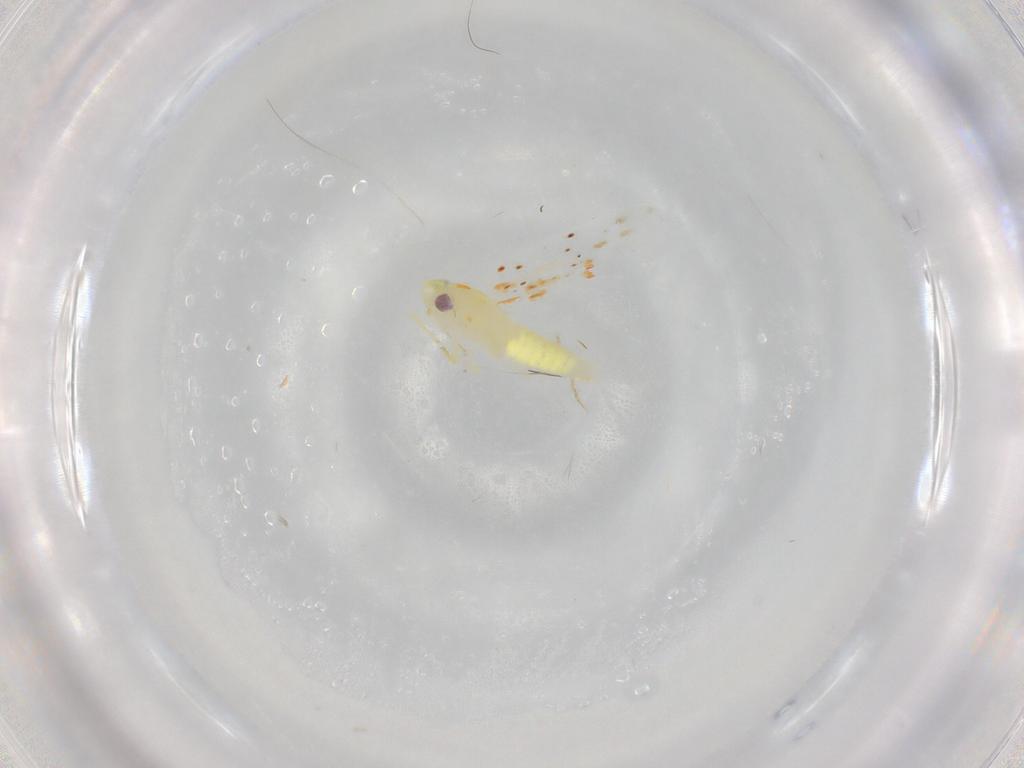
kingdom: Animalia
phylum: Arthropoda
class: Insecta
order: Hemiptera
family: Cicadellidae
